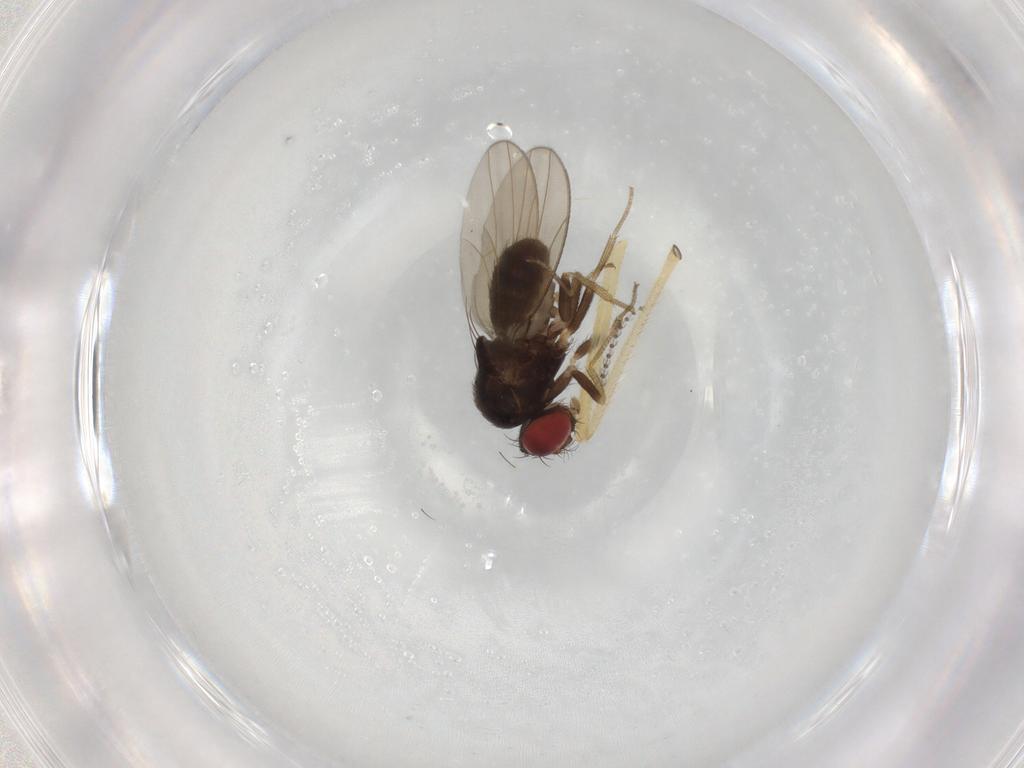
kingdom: Animalia
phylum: Arthropoda
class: Insecta
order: Diptera
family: Drosophilidae
